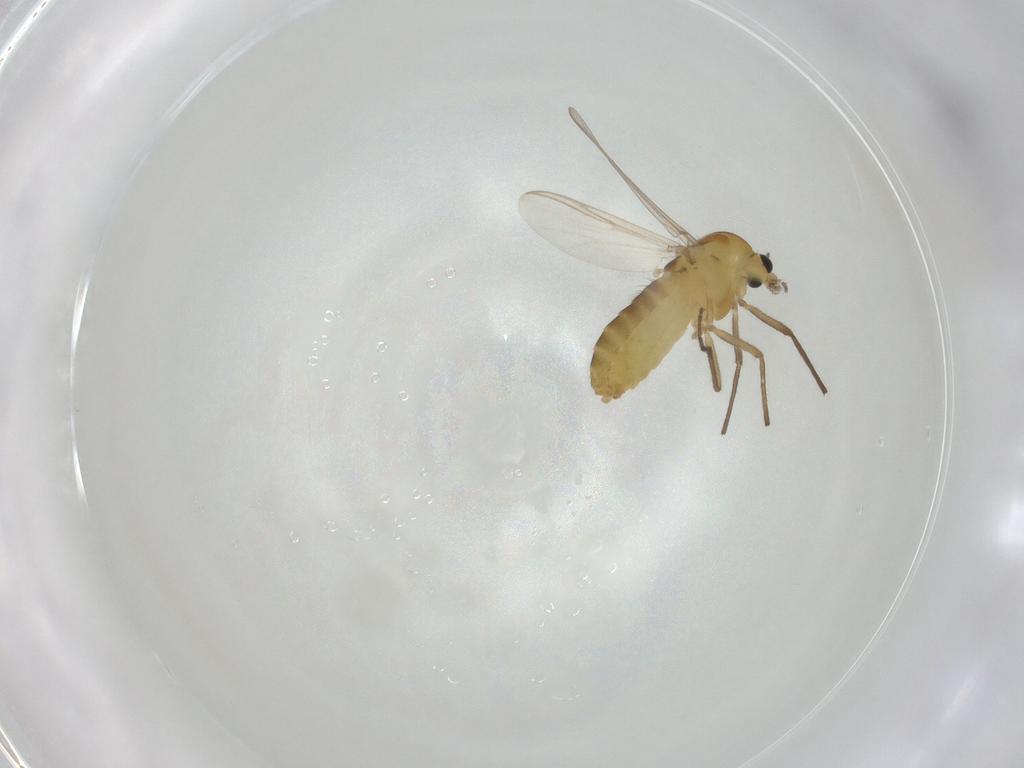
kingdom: Animalia
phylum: Arthropoda
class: Insecta
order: Diptera
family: Chironomidae
